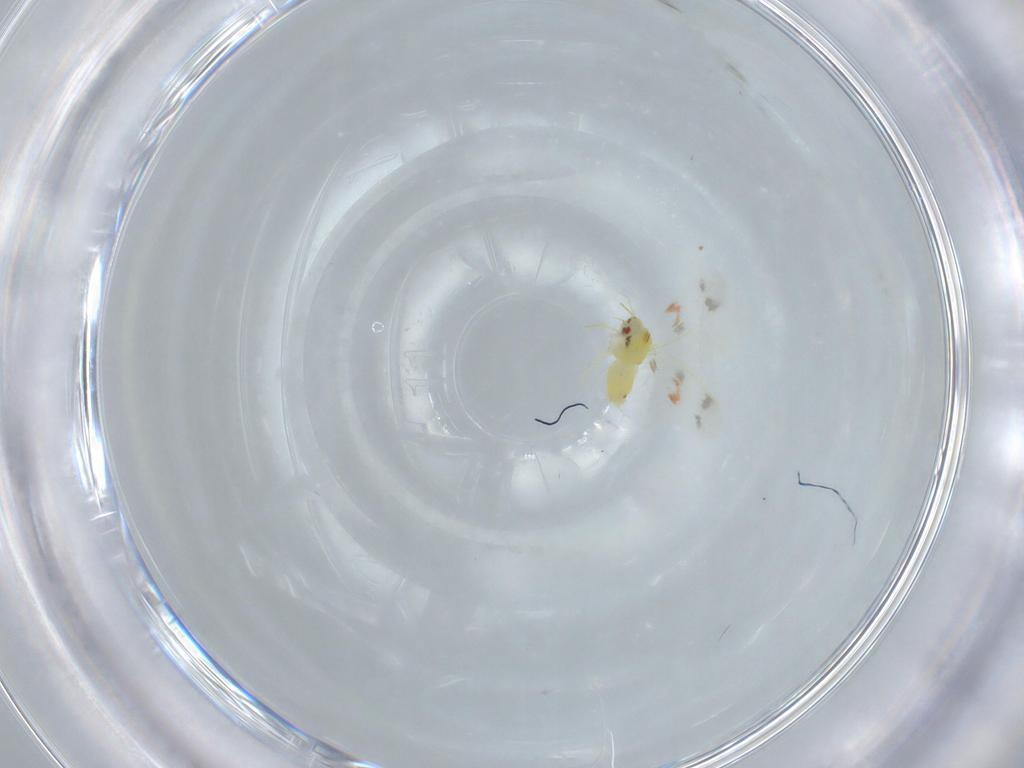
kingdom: Animalia
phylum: Arthropoda
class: Insecta
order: Hemiptera
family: Aleyrodidae
